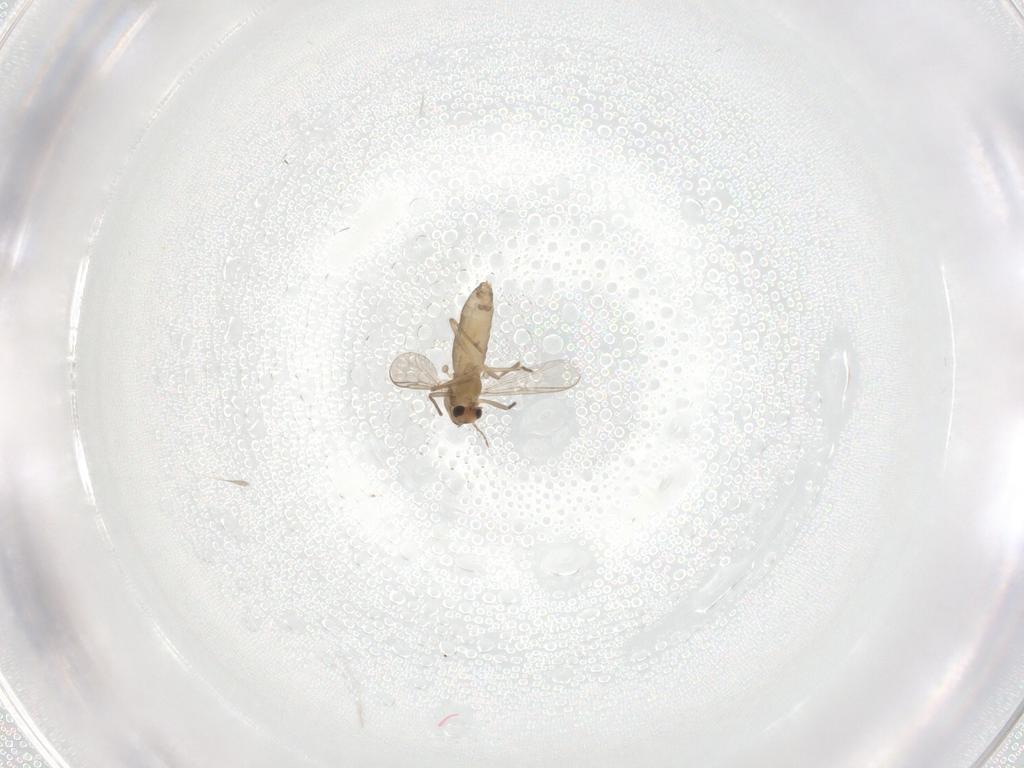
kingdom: Animalia
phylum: Arthropoda
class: Insecta
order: Diptera
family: Chironomidae
